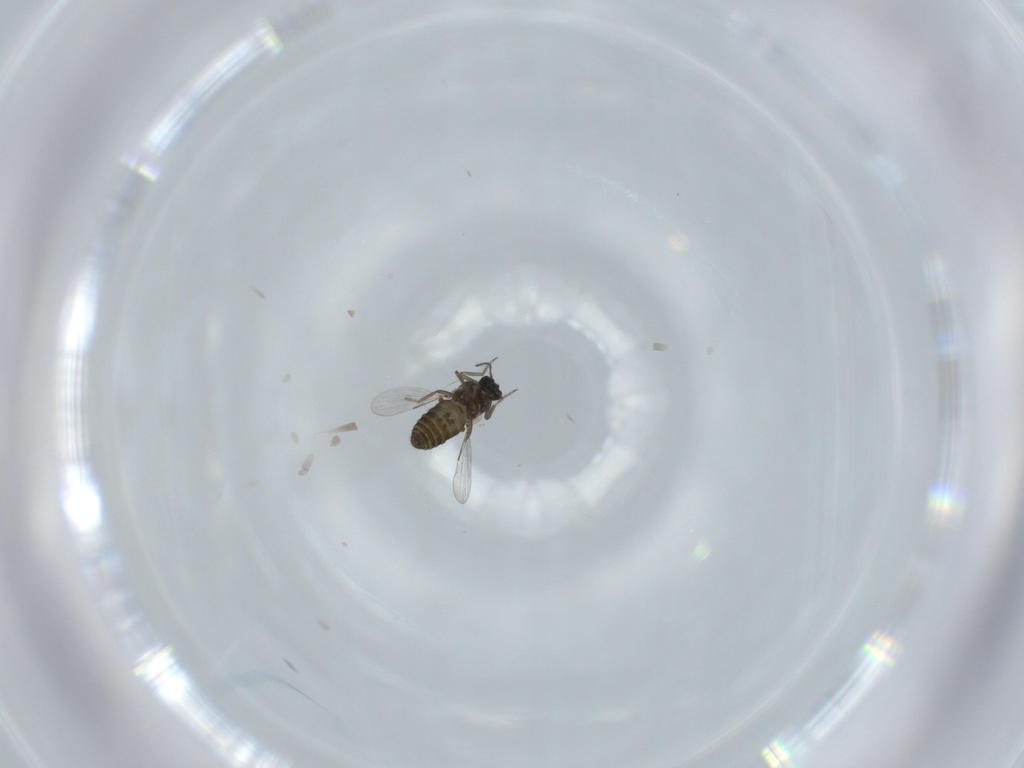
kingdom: Animalia
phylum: Arthropoda
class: Insecta
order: Diptera
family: Ceratopogonidae
